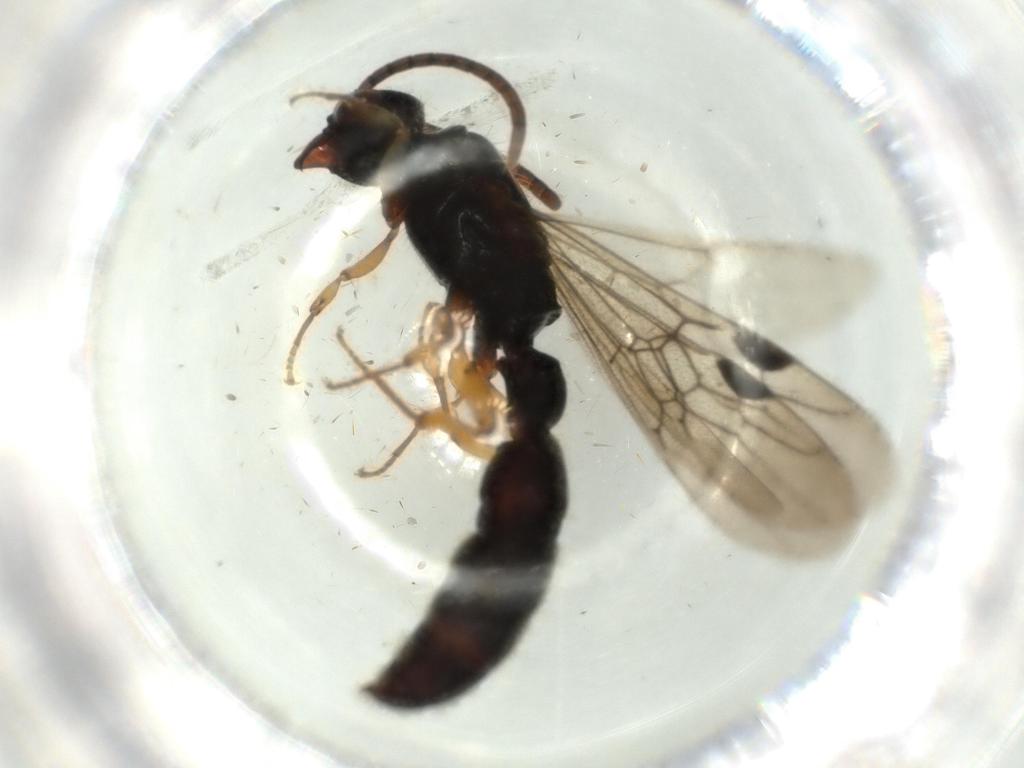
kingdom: Animalia
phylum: Arthropoda
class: Insecta
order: Hymenoptera
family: Formicidae
